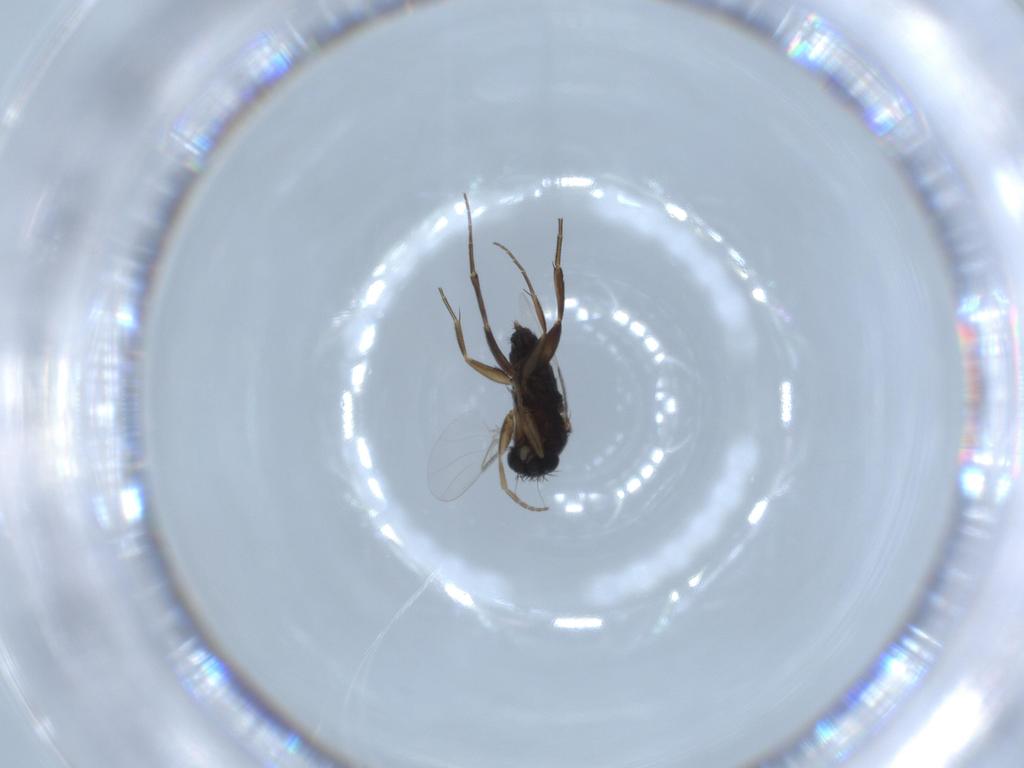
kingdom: Animalia
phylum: Arthropoda
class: Insecta
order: Diptera
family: Phoridae
